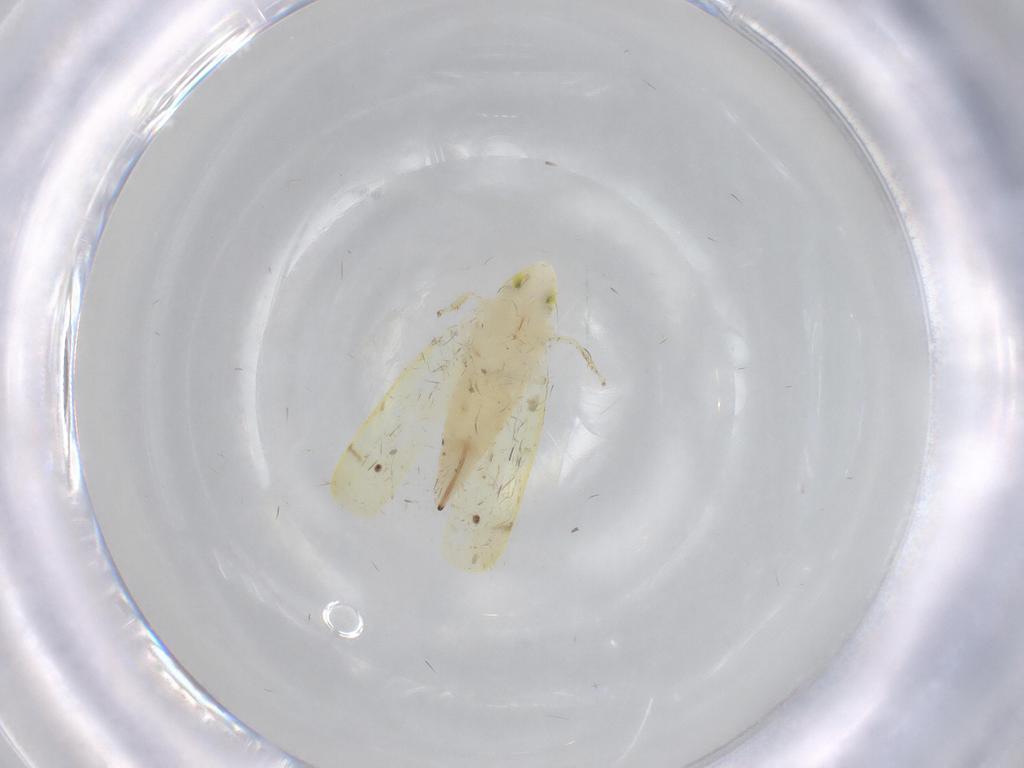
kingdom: Animalia
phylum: Arthropoda
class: Insecta
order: Hemiptera
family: Cicadellidae
